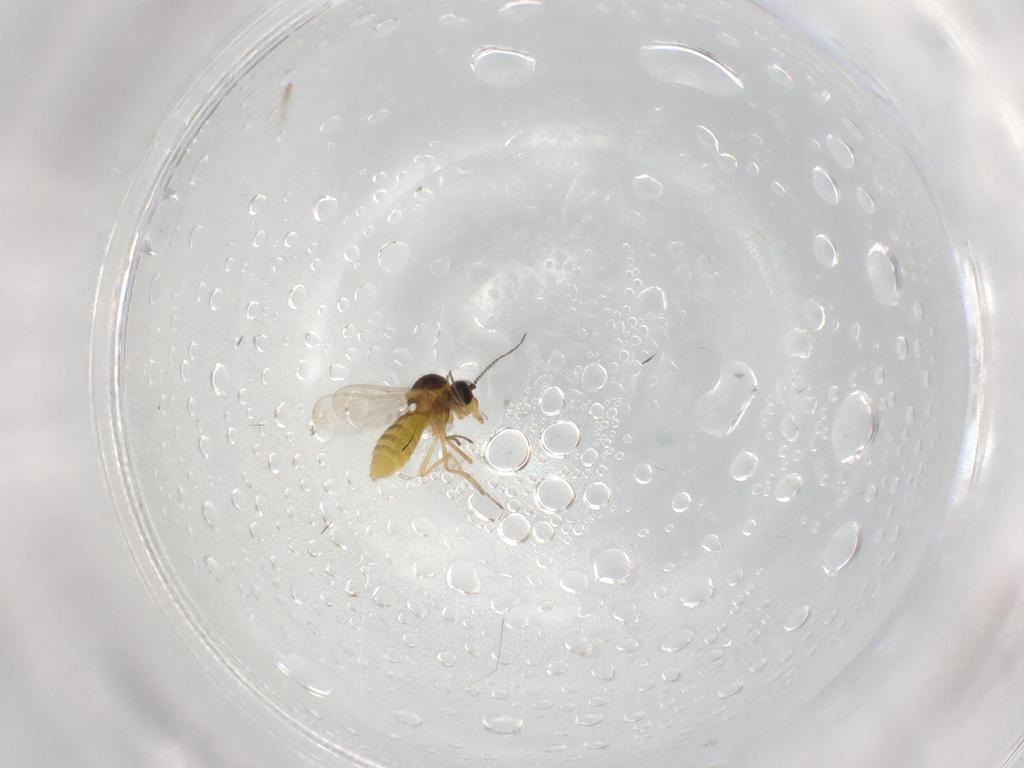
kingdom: Animalia
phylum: Arthropoda
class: Insecta
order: Diptera
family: Ceratopogonidae
